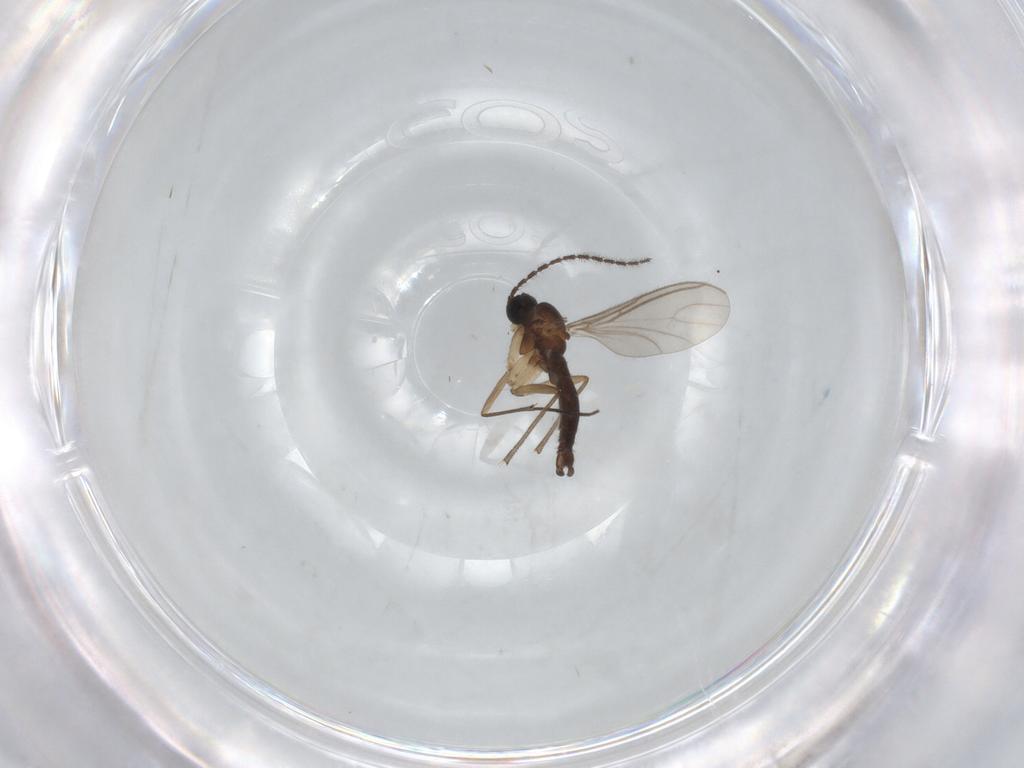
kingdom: Animalia
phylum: Arthropoda
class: Insecta
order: Diptera
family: Sciaridae
